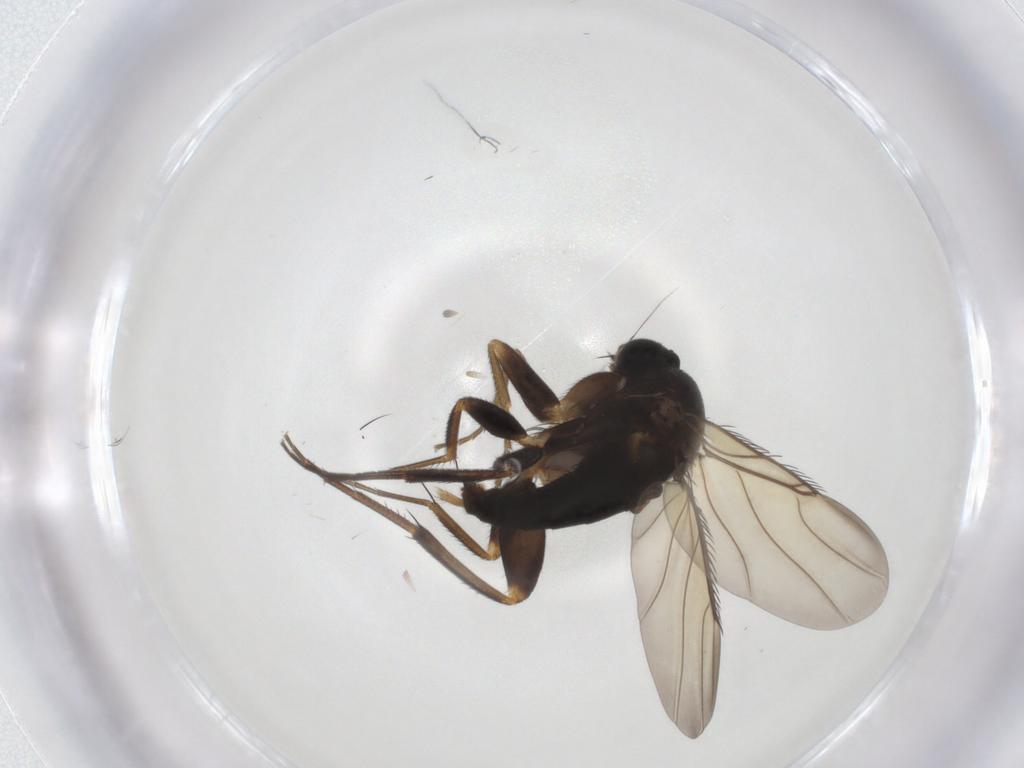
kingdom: Animalia
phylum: Arthropoda
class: Insecta
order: Diptera
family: Phoridae
